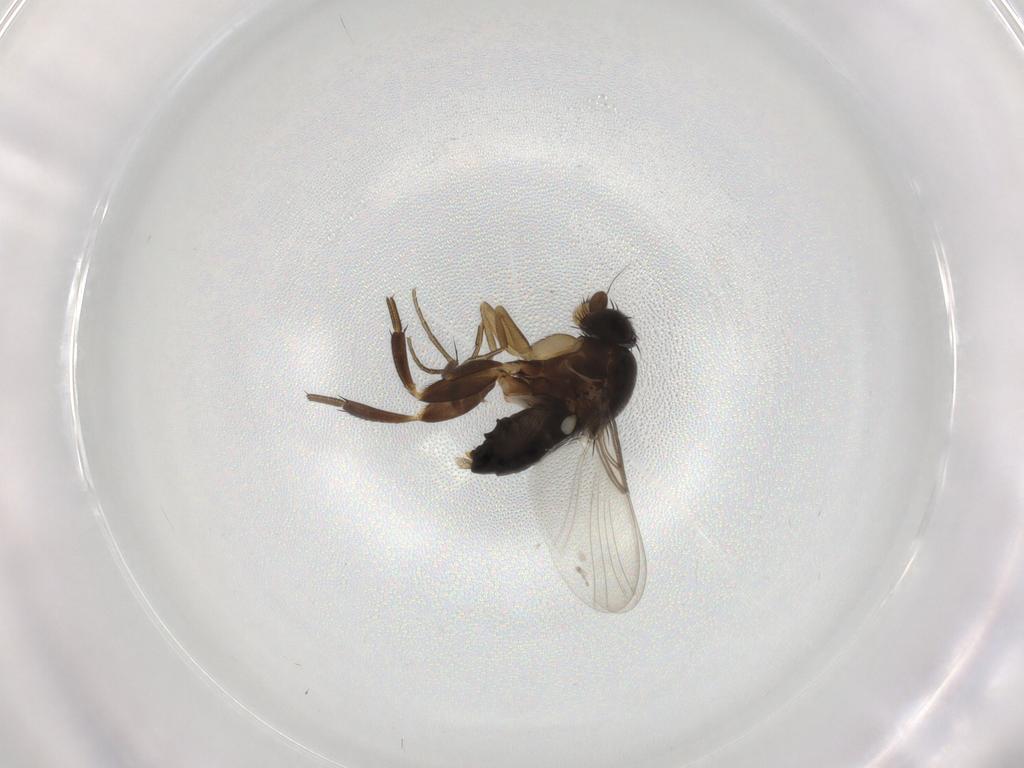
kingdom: Animalia
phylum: Arthropoda
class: Insecta
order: Diptera
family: Phoridae
